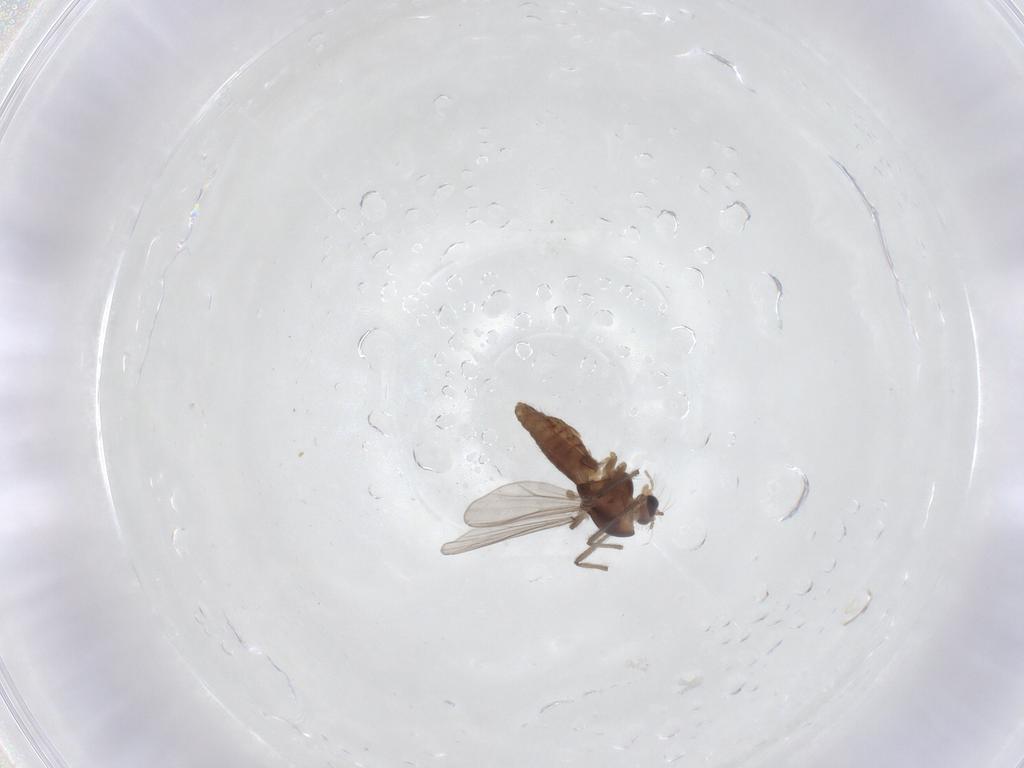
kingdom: Animalia
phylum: Arthropoda
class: Insecta
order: Diptera
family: Chironomidae
